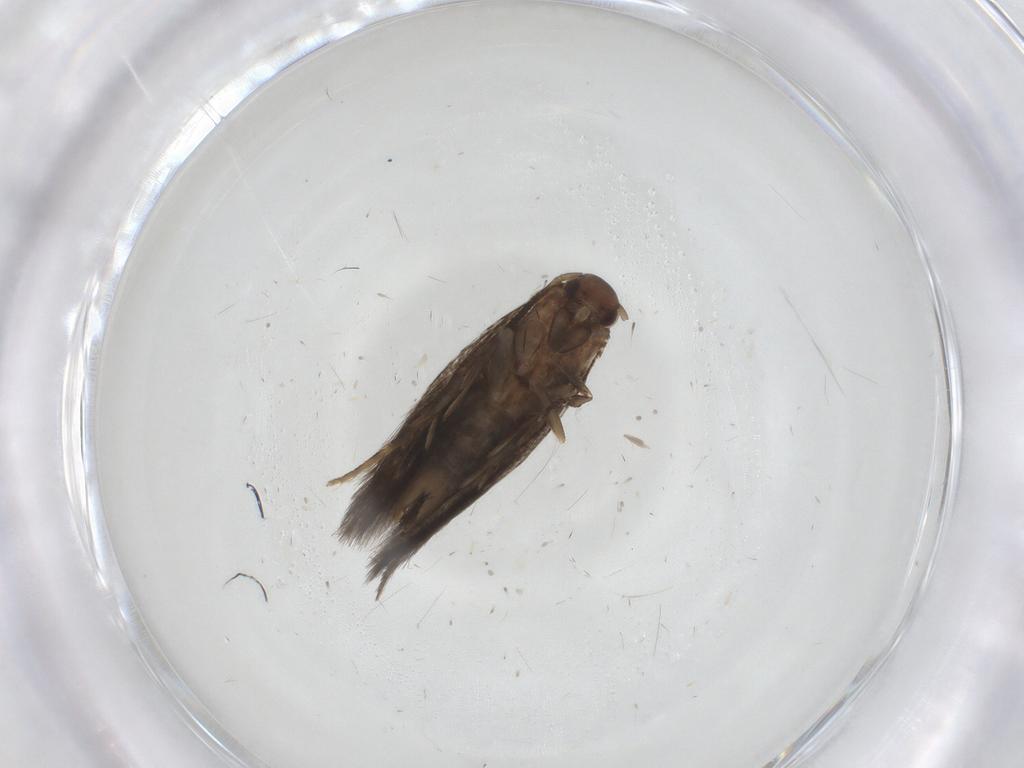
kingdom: Animalia
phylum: Arthropoda
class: Insecta
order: Lepidoptera
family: Elachistidae
